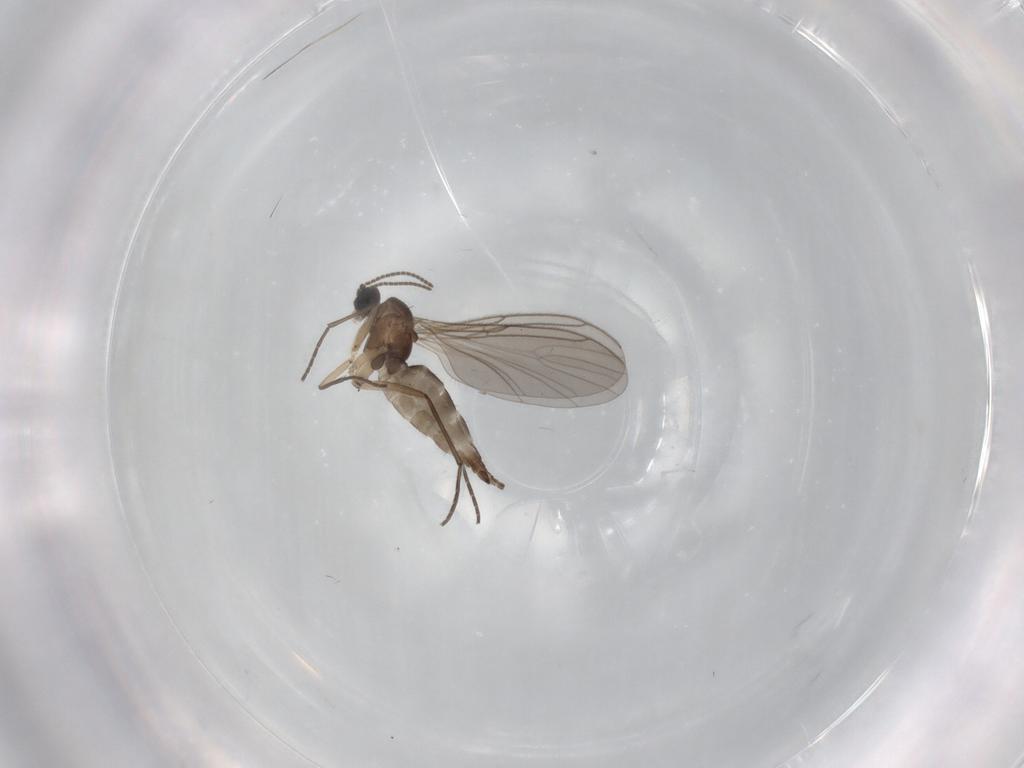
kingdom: Animalia
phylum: Arthropoda
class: Insecta
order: Diptera
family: Sciaridae
